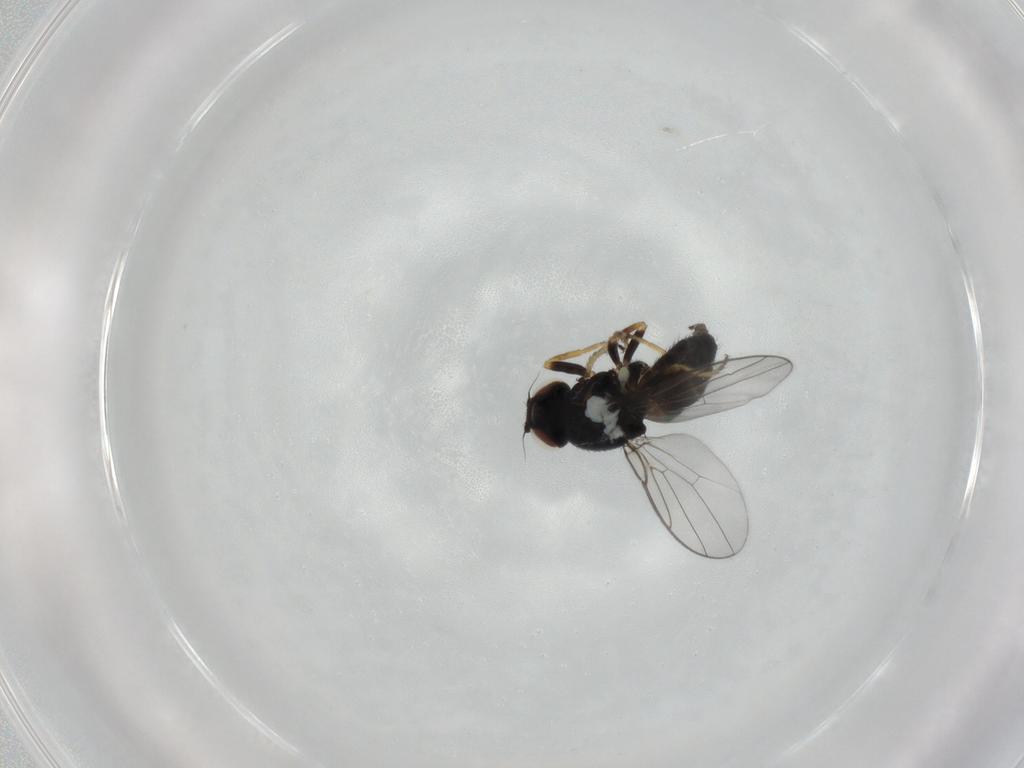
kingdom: Animalia
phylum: Arthropoda
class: Insecta
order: Diptera
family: Chloropidae
